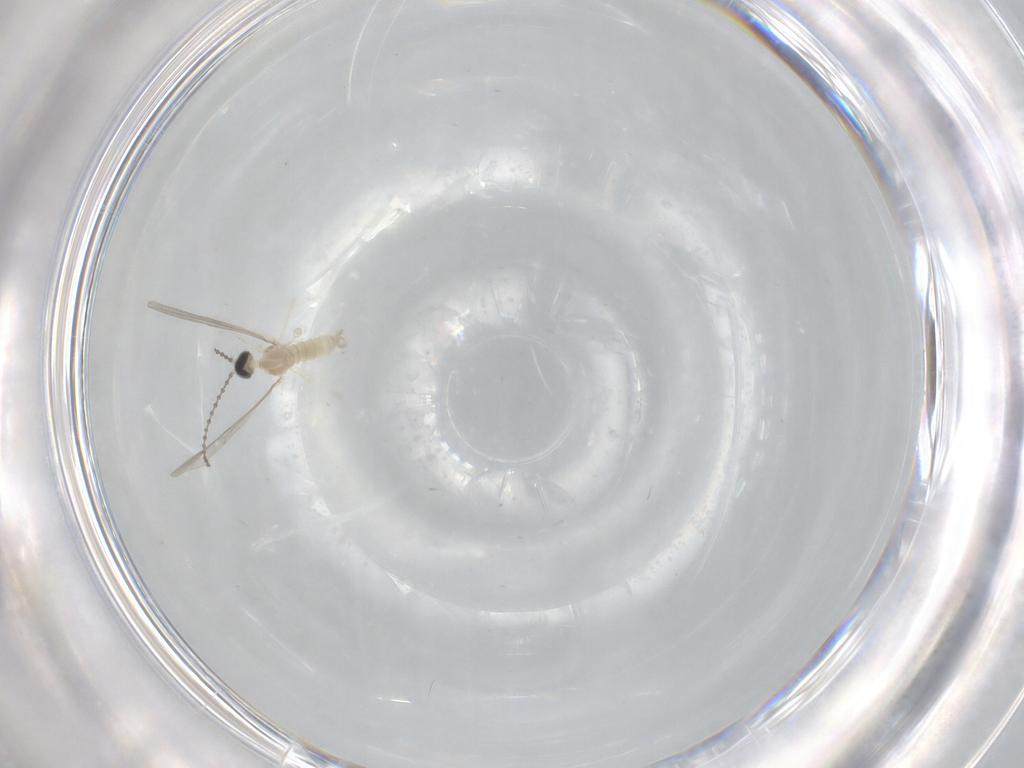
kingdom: Animalia
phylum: Arthropoda
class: Insecta
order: Diptera
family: Cecidomyiidae
